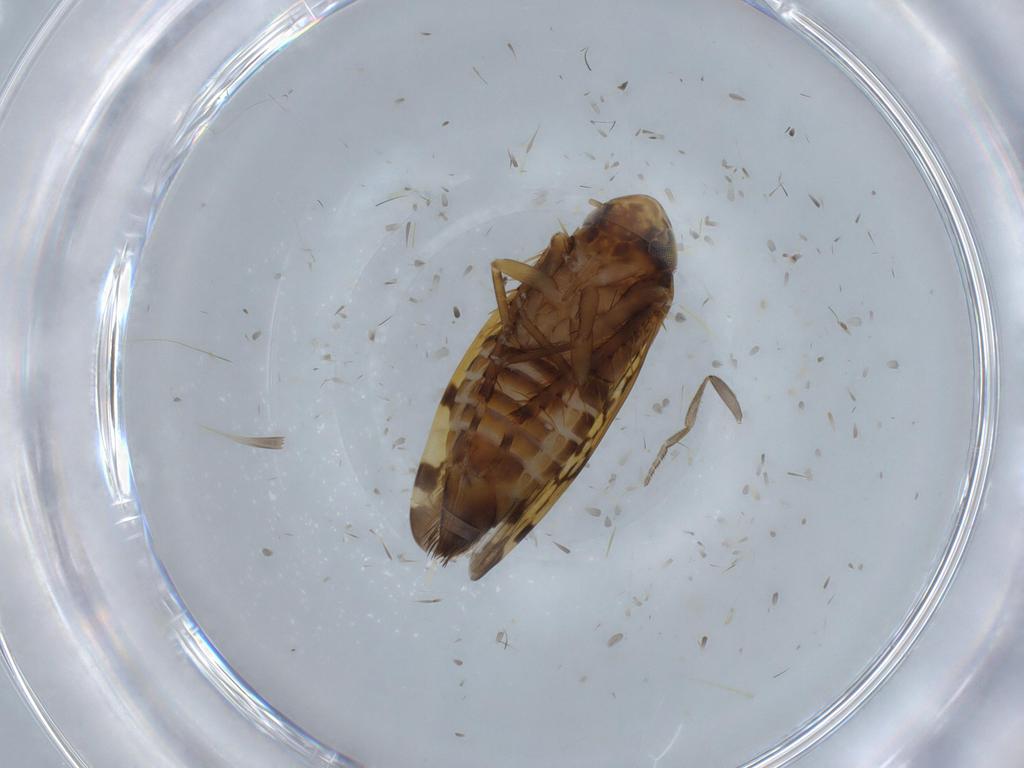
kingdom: Animalia
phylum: Arthropoda
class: Insecta
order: Hemiptera
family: Cicadellidae
